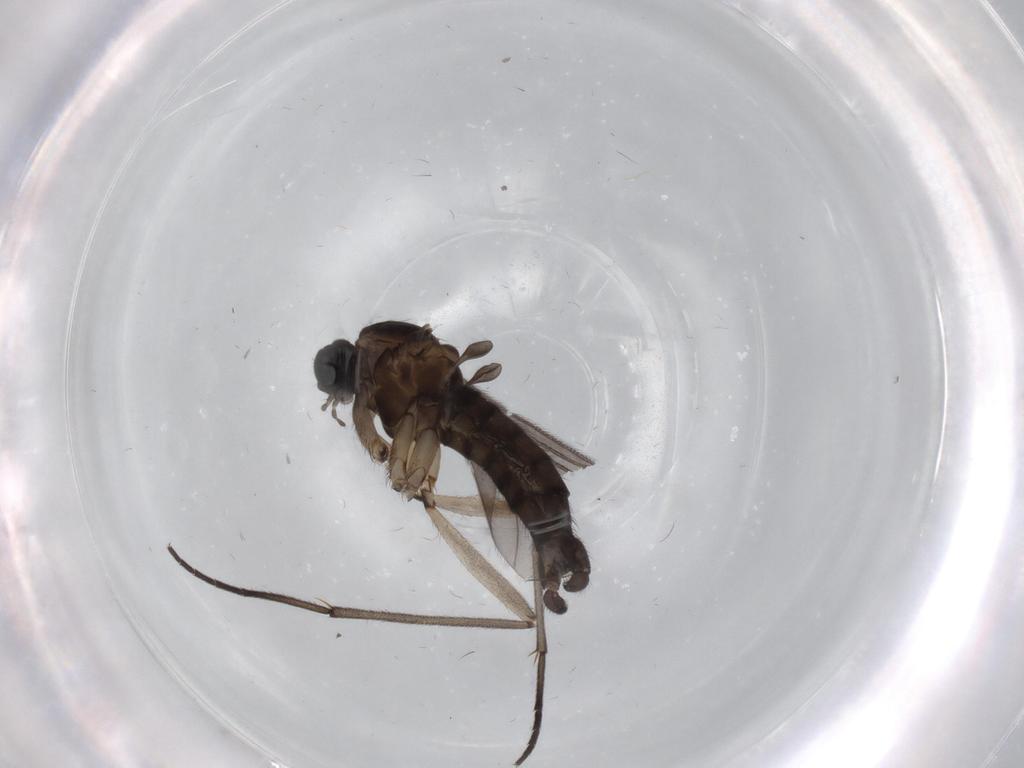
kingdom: Animalia
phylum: Arthropoda
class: Insecta
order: Diptera
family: Sciaridae
